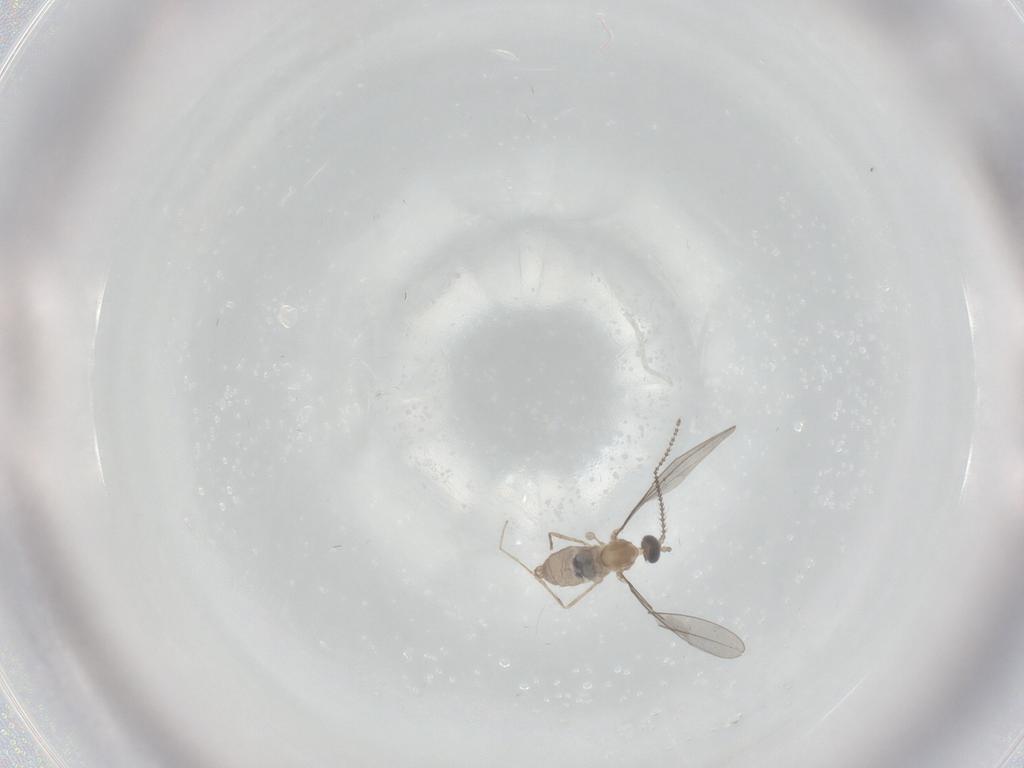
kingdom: Animalia
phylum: Arthropoda
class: Insecta
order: Diptera
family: Cecidomyiidae
